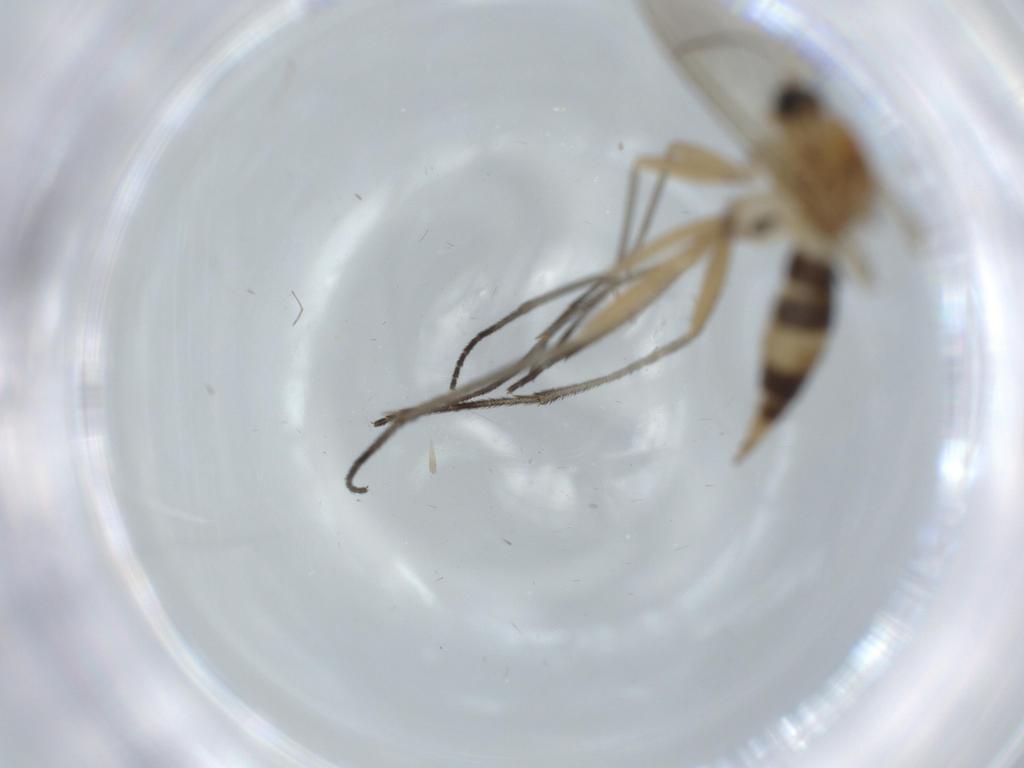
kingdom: Animalia
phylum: Arthropoda
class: Insecta
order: Diptera
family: Sciaridae
